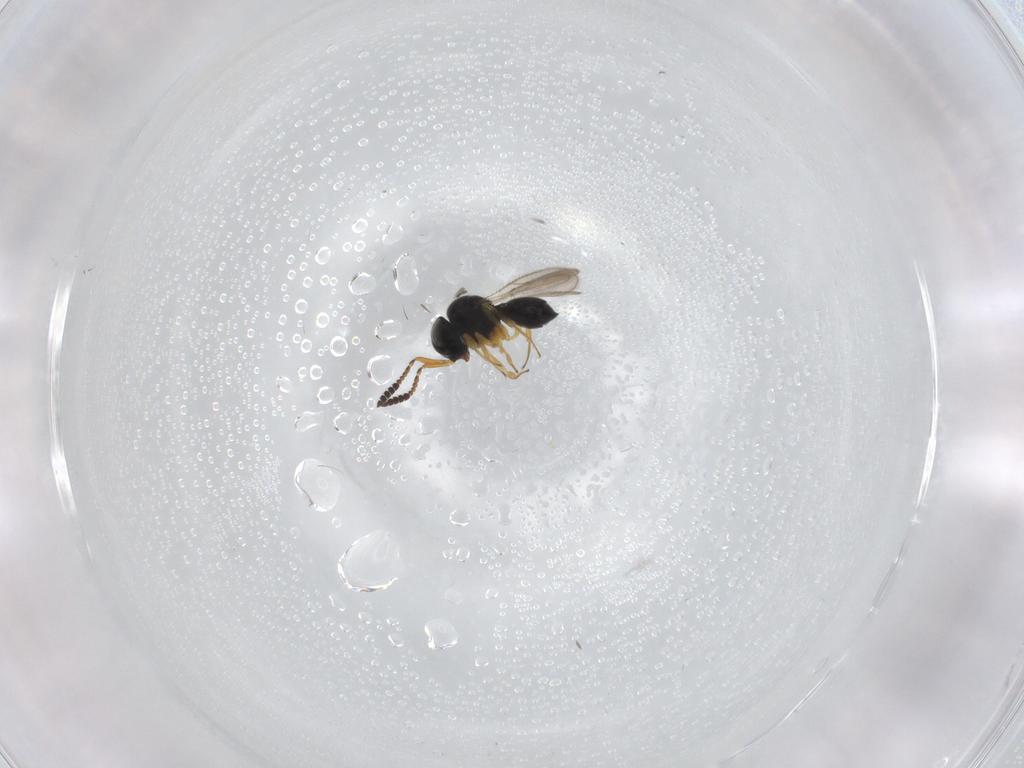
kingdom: Animalia
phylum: Arthropoda
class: Insecta
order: Hymenoptera
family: Scelionidae
